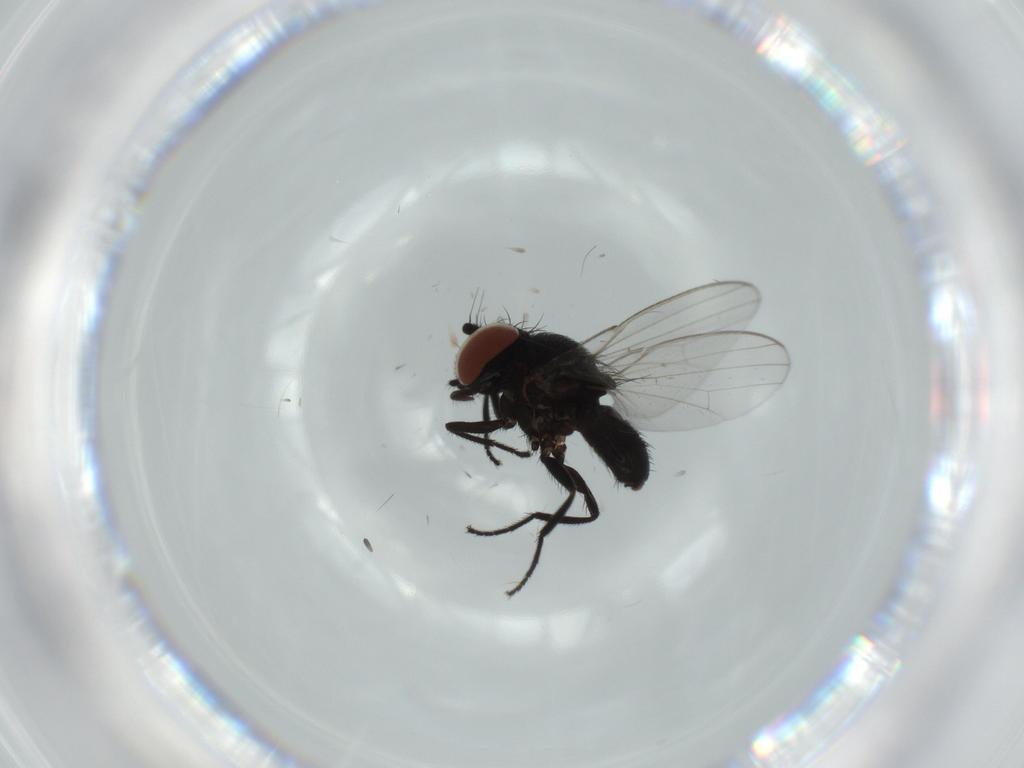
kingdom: Animalia
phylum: Arthropoda
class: Insecta
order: Diptera
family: Milichiidae
